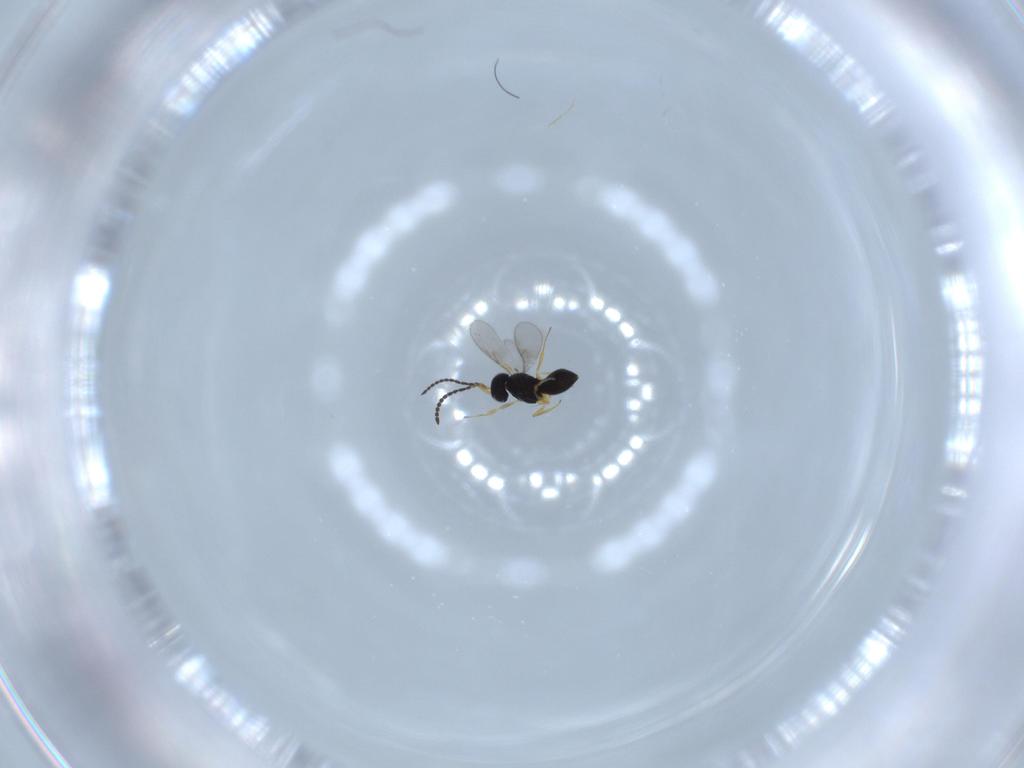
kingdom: Animalia
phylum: Arthropoda
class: Insecta
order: Hymenoptera
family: Scelionidae
